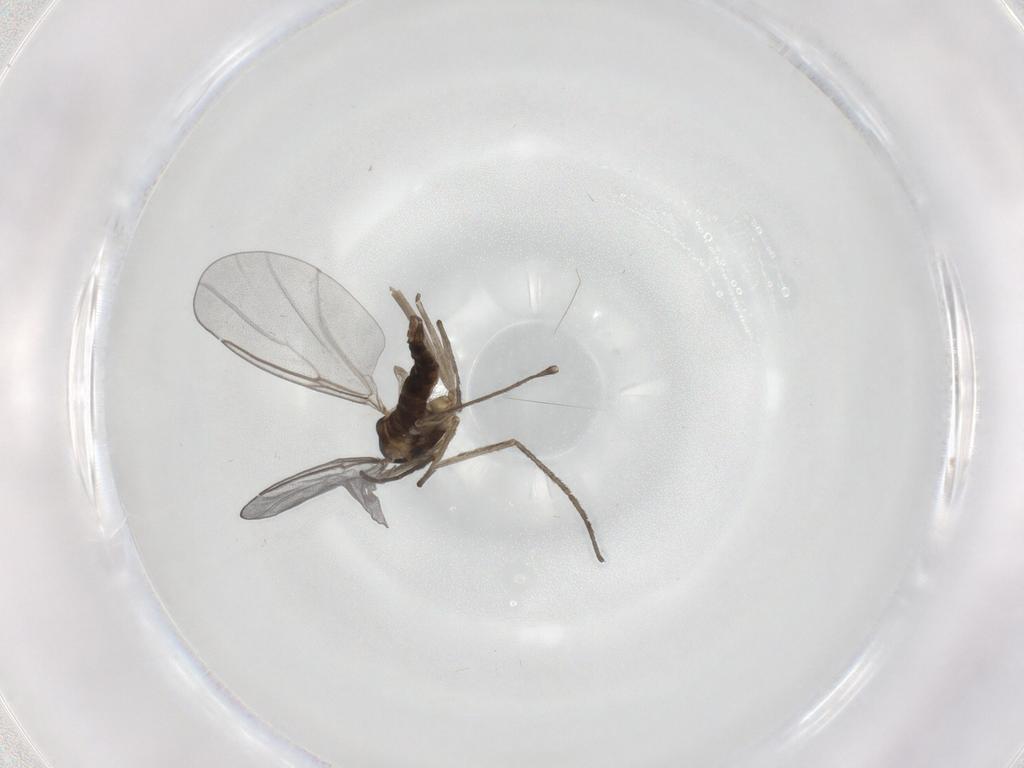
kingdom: Animalia
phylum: Arthropoda
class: Insecta
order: Diptera
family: Cecidomyiidae
